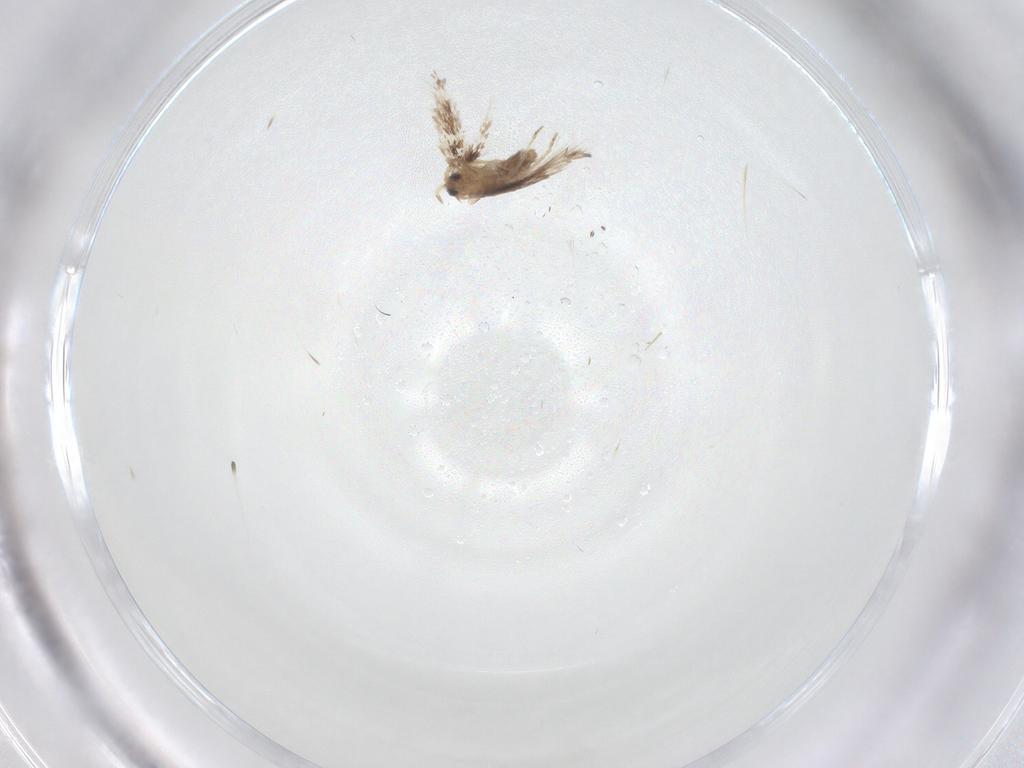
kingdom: Animalia
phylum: Arthropoda
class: Insecta
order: Lepidoptera
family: Nepticulidae
